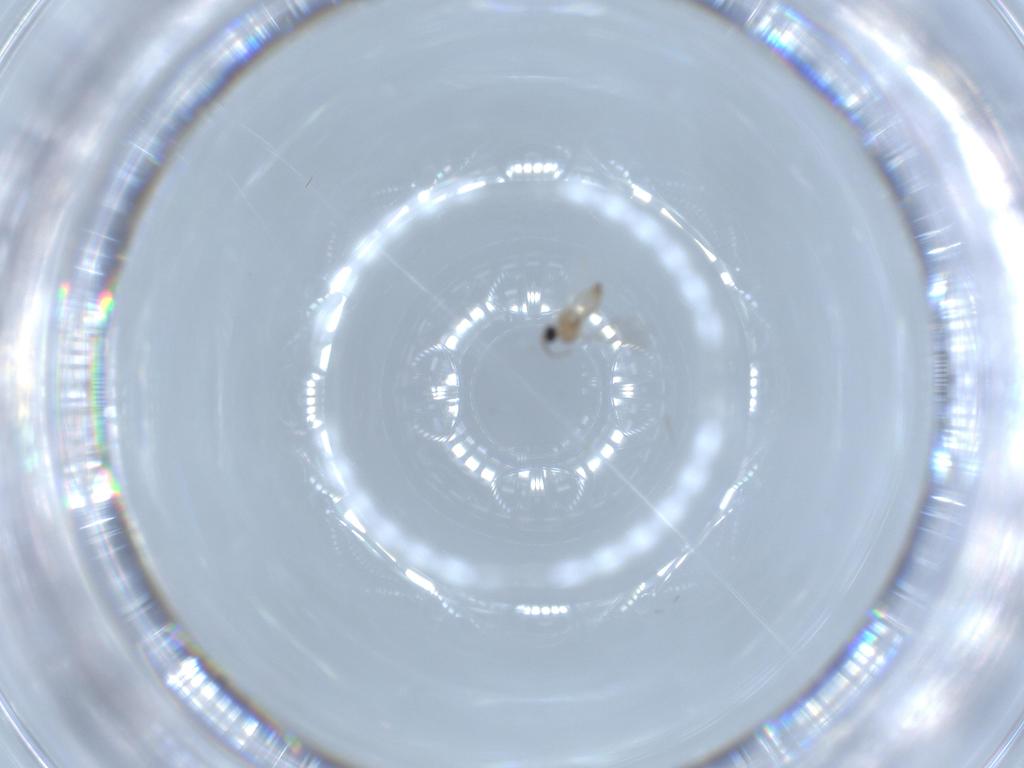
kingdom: Animalia
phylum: Arthropoda
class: Insecta
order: Diptera
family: Cecidomyiidae
